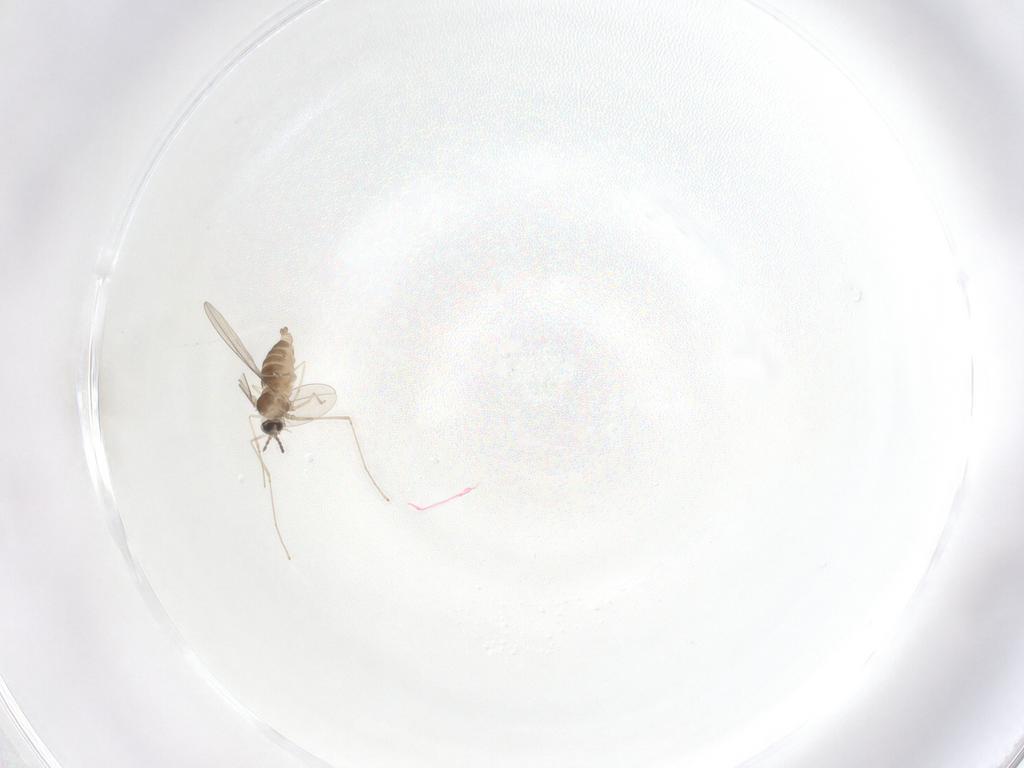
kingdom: Animalia
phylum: Arthropoda
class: Insecta
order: Diptera
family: Cecidomyiidae
